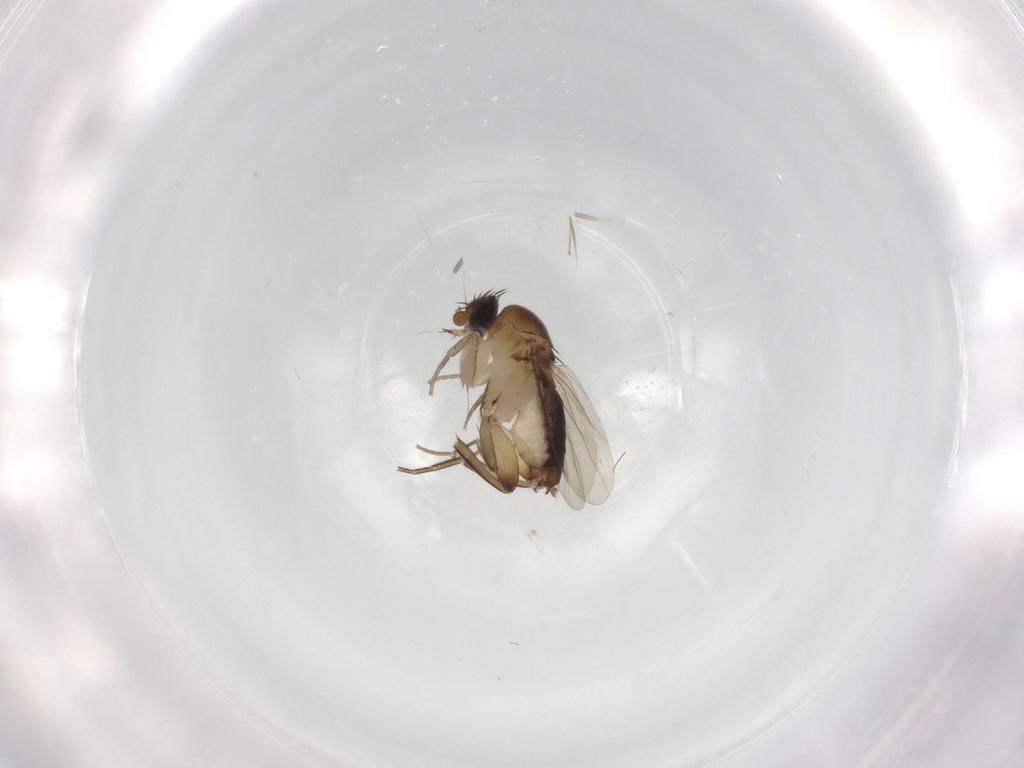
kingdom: Animalia
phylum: Arthropoda
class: Insecta
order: Diptera
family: Phoridae
